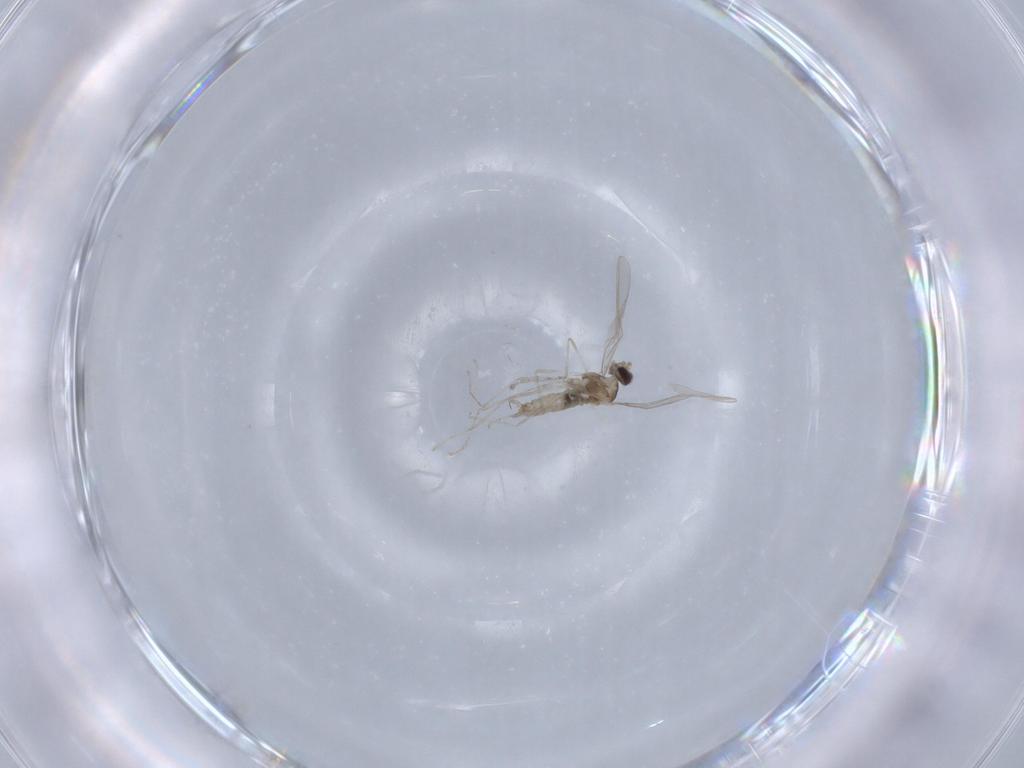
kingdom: Animalia
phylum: Arthropoda
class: Insecta
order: Diptera
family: Cecidomyiidae
